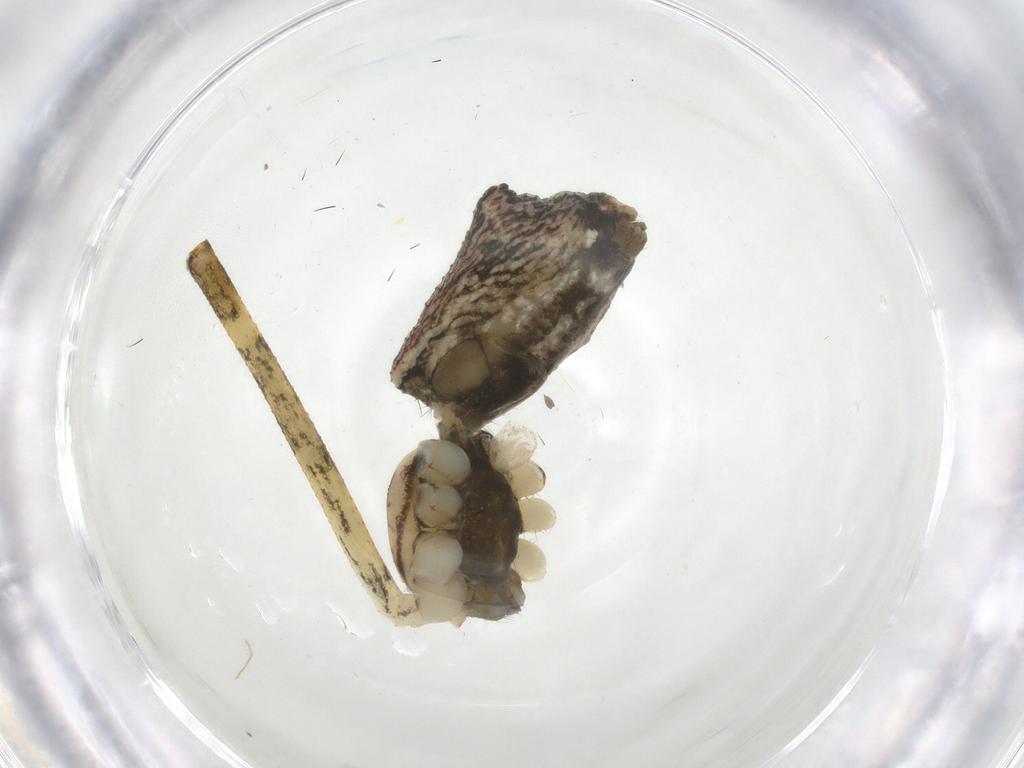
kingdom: Animalia
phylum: Arthropoda
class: Arachnida
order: Araneae
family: Theridiidae
